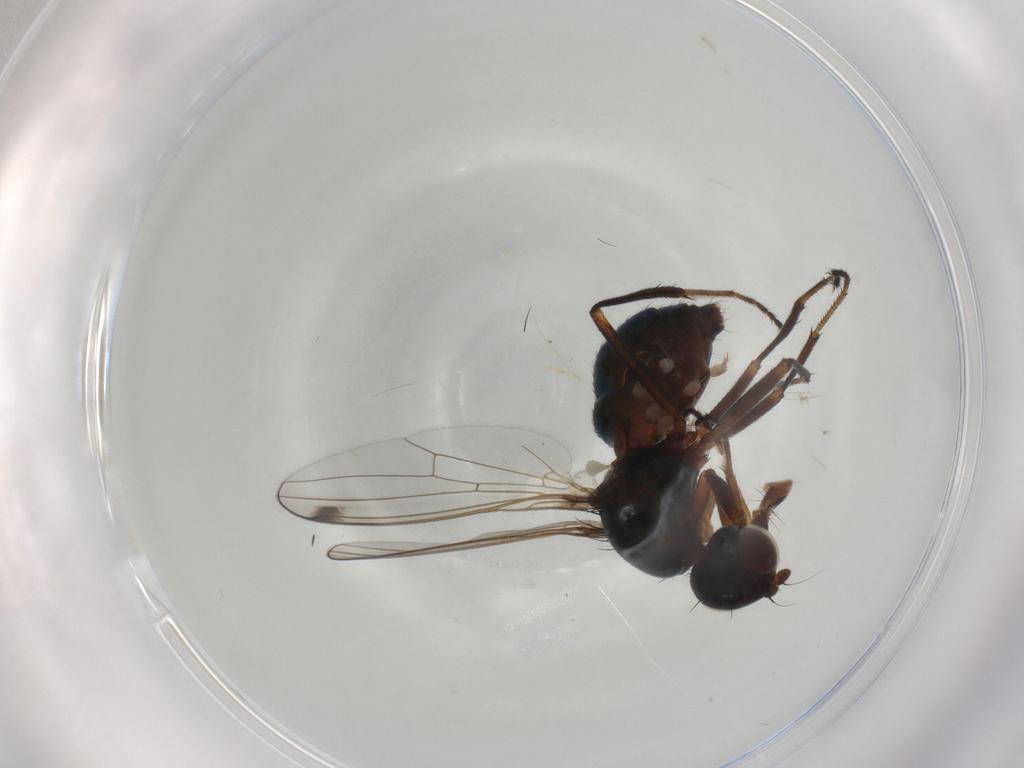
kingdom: Animalia
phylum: Arthropoda
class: Insecta
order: Diptera
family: Sepsidae
